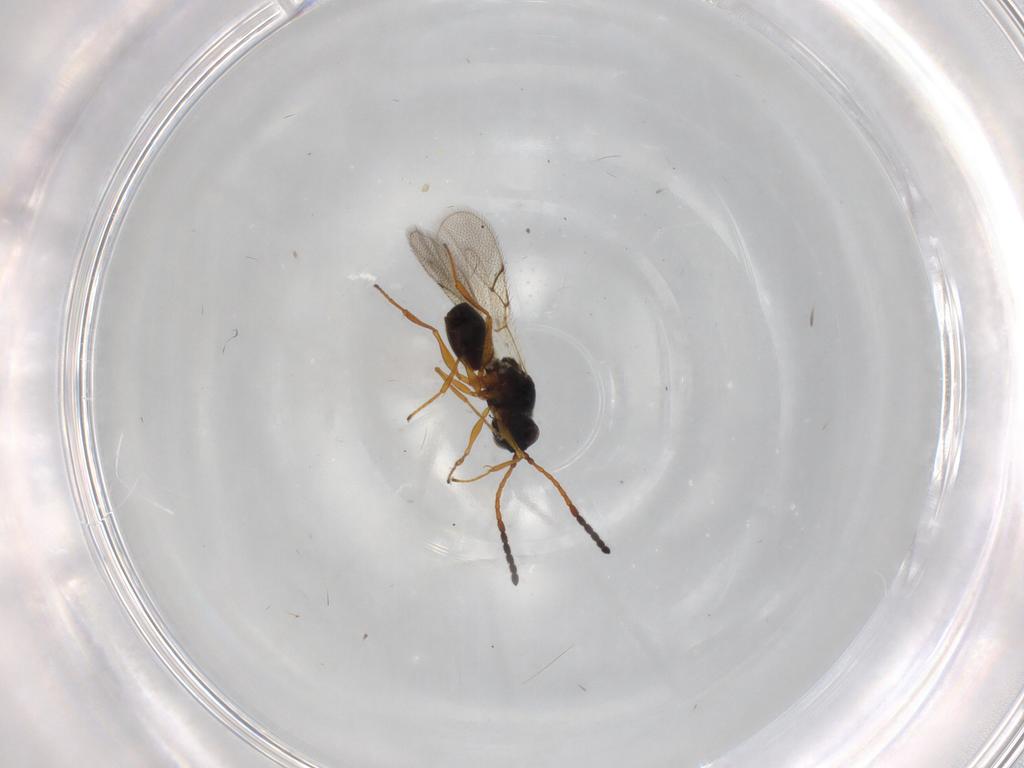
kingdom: Animalia
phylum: Arthropoda
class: Insecta
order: Hymenoptera
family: Figitidae
